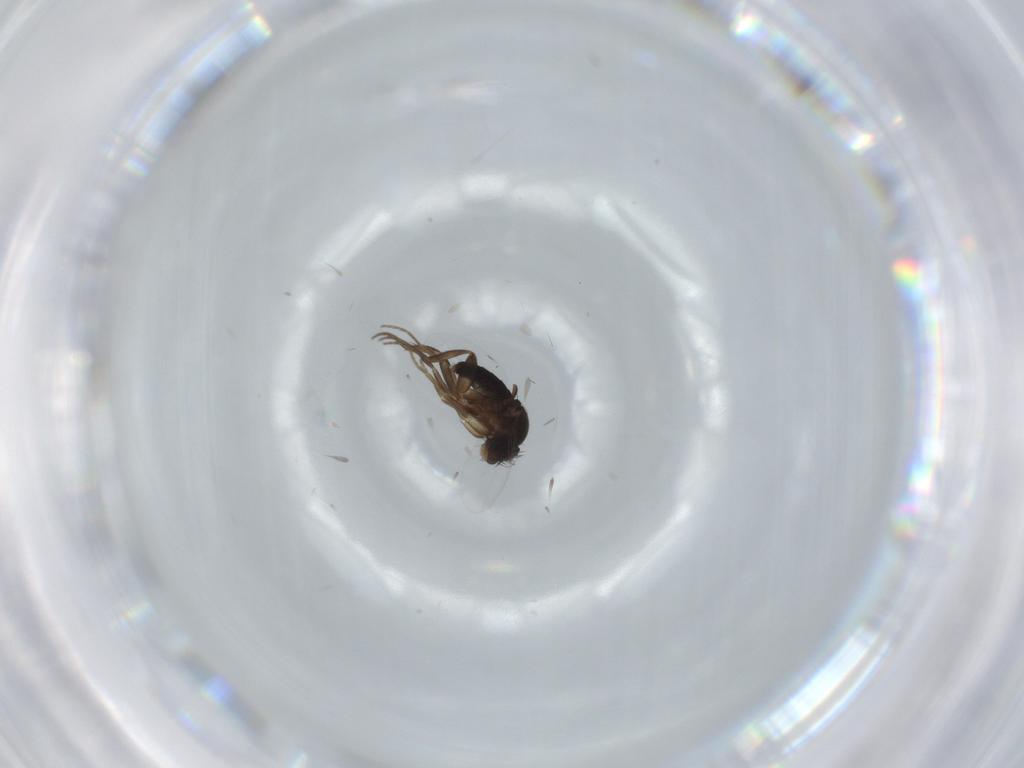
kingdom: Animalia
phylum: Arthropoda
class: Insecta
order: Diptera
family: Phoridae
